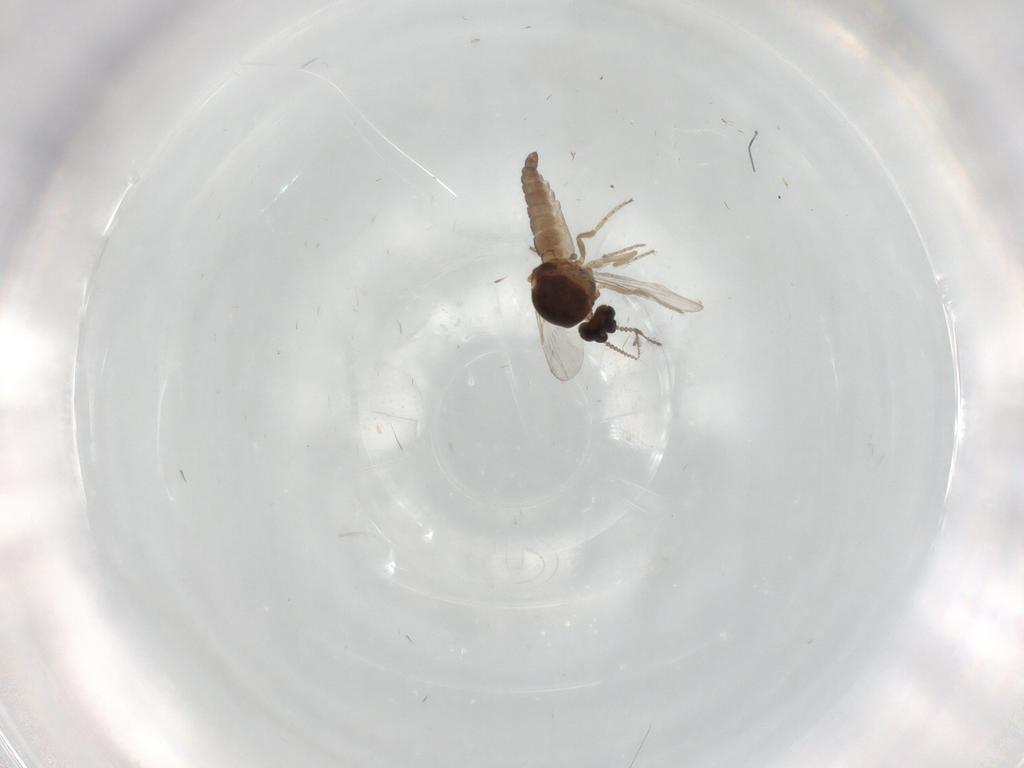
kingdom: Animalia
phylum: Arthropoda
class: Insecta
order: Diptera
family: Ceratopogonidae
